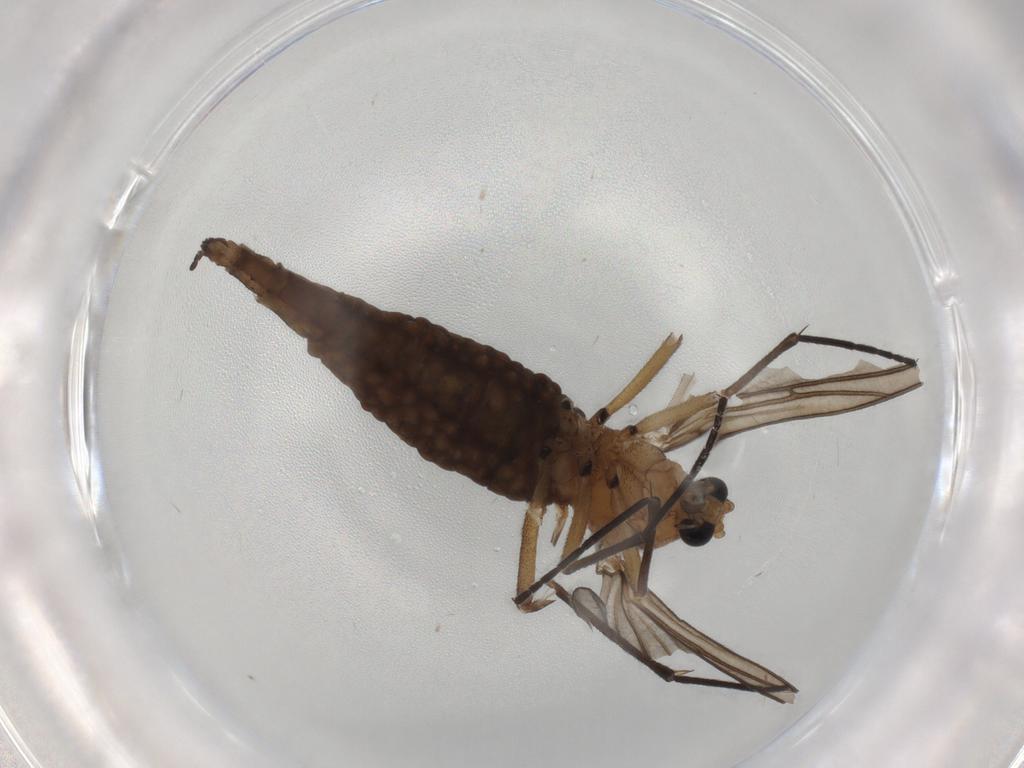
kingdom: Animalia
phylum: Arthropoda
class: Insecta
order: Diptera
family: Sciaridae
